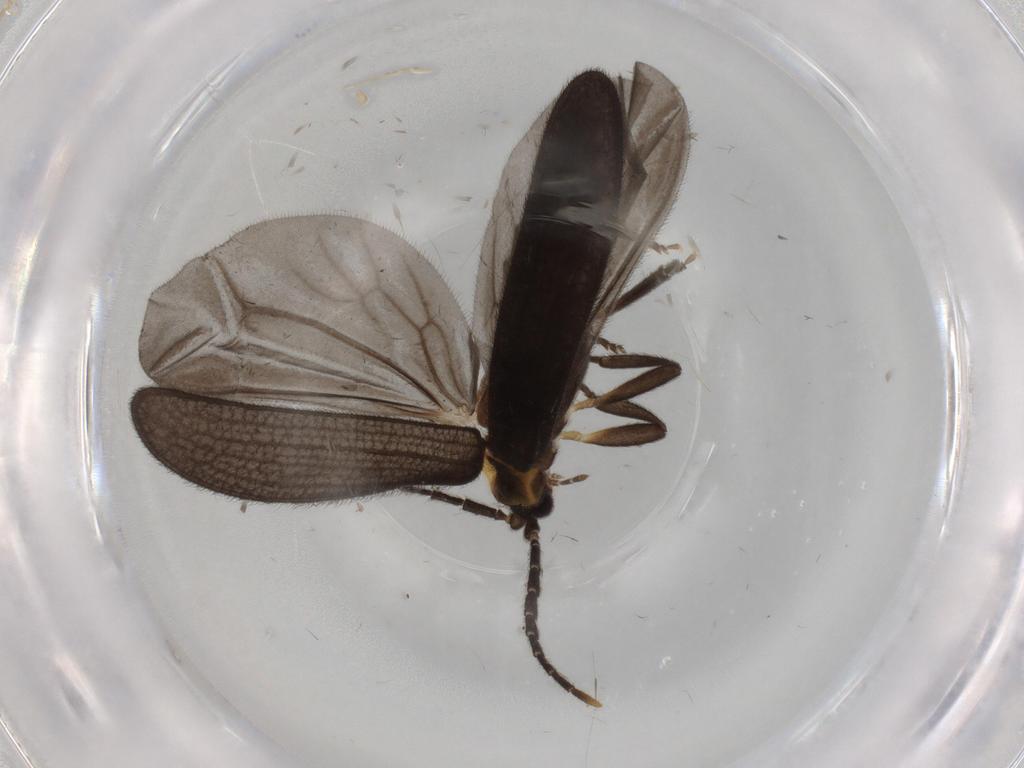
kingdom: Animalia
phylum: Arthropoda
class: Insecta
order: Coleoptera
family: Lycidae
